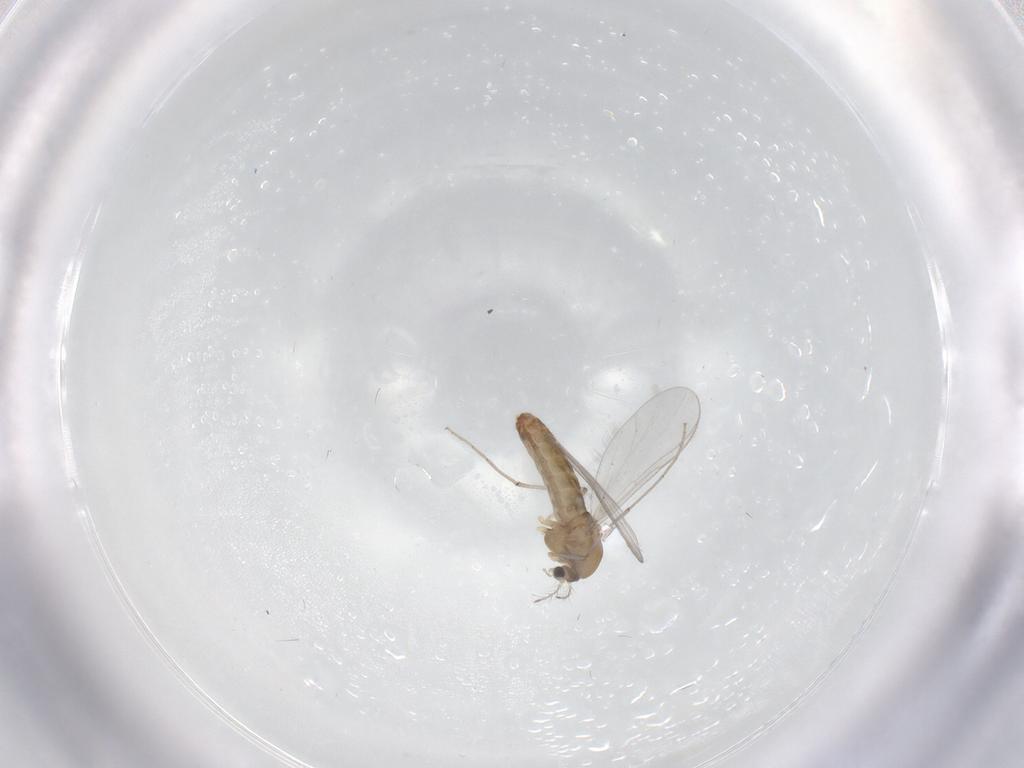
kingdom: Animalia
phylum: Arthropoda
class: Insecta
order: Diptera
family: Chironomidae
